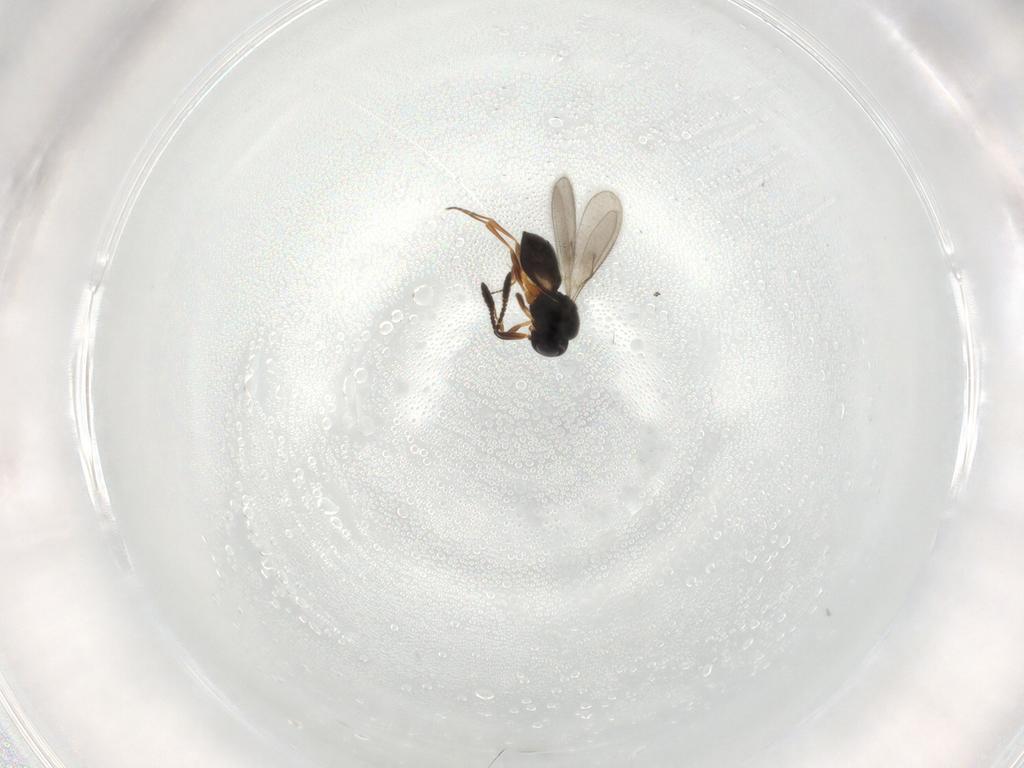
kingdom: Animalia
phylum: Arthropoda
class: Insecta
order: Hymenoptera
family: Scelionidae
